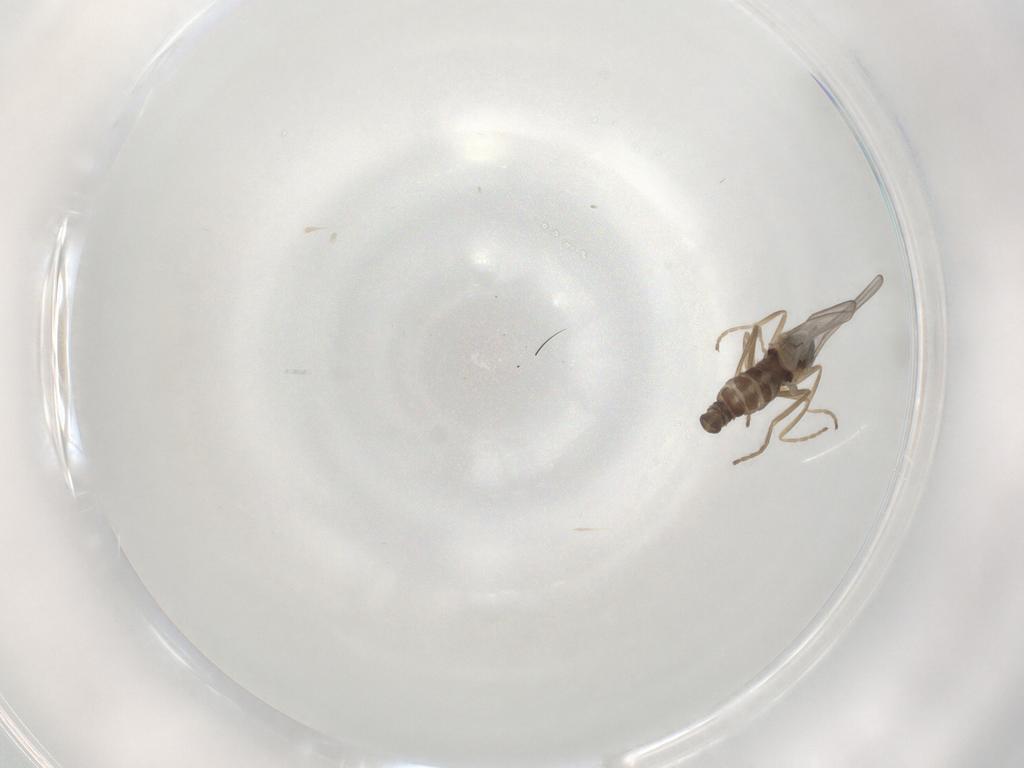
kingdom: Animalia
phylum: Arthropoda
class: Insecta
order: Diptera
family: Cecidomyiidae
